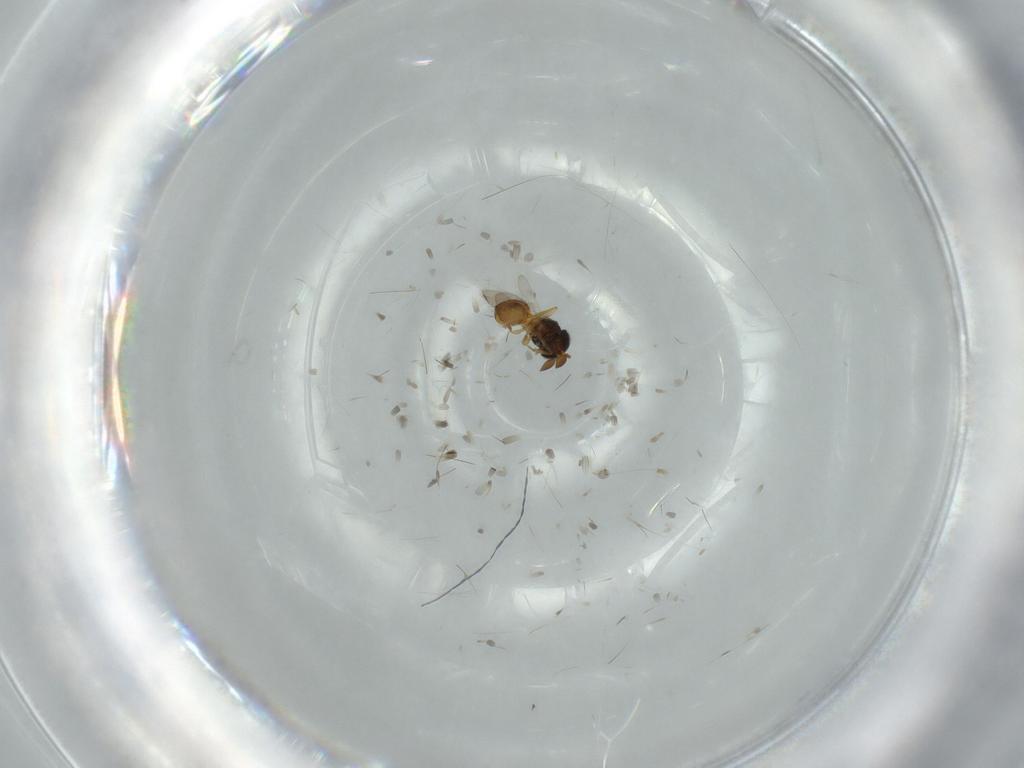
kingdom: Animalia
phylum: Arthropoda
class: Insecta
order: Hymenoptera
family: Scelionidae
